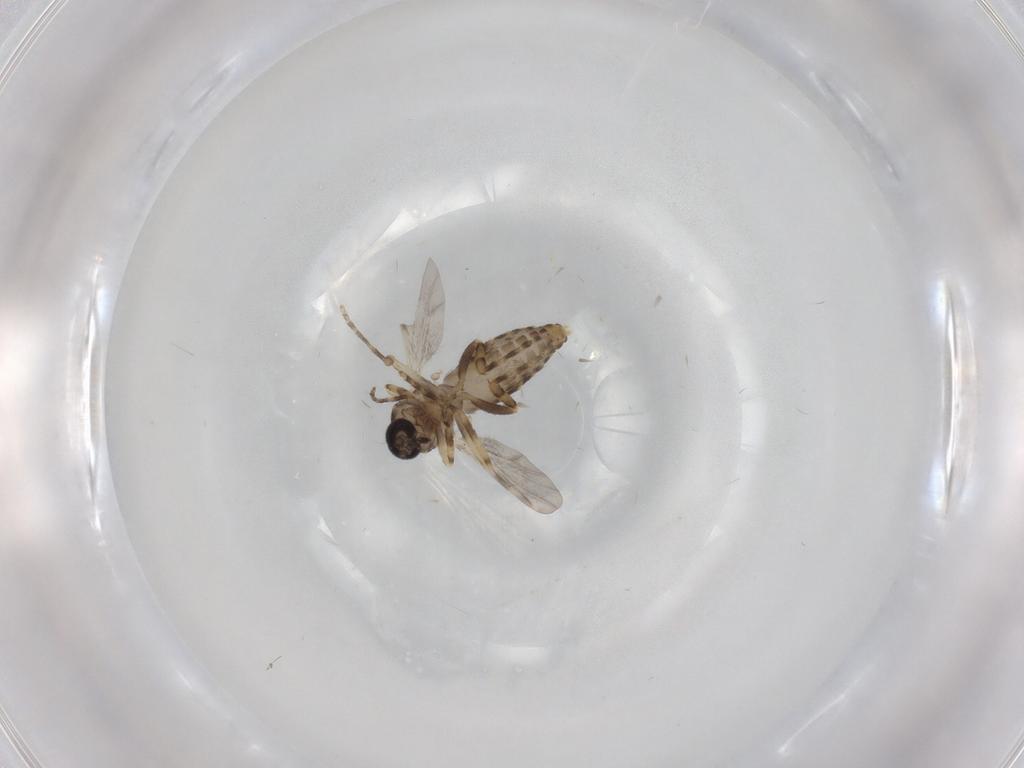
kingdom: Animalia
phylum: Arthropoda
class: Insecta
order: Diptera
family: Ceratopogonidae
